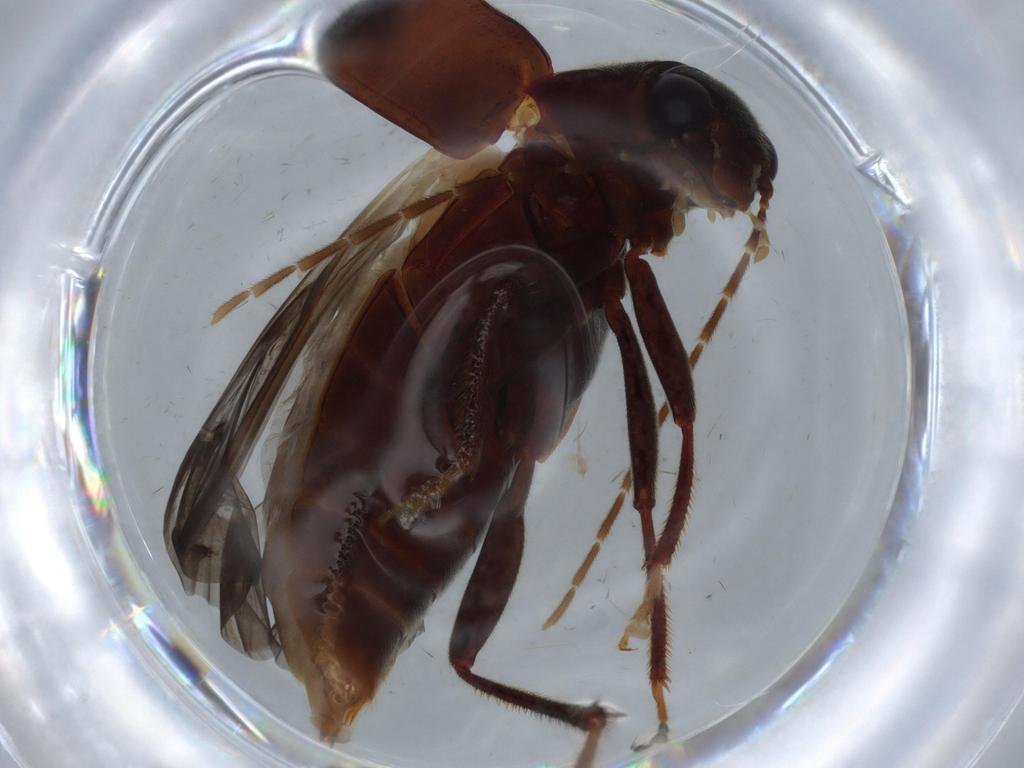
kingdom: Animalia
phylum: Arthropoda
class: Insecta
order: Coleoptera
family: Ptilodactylidae
